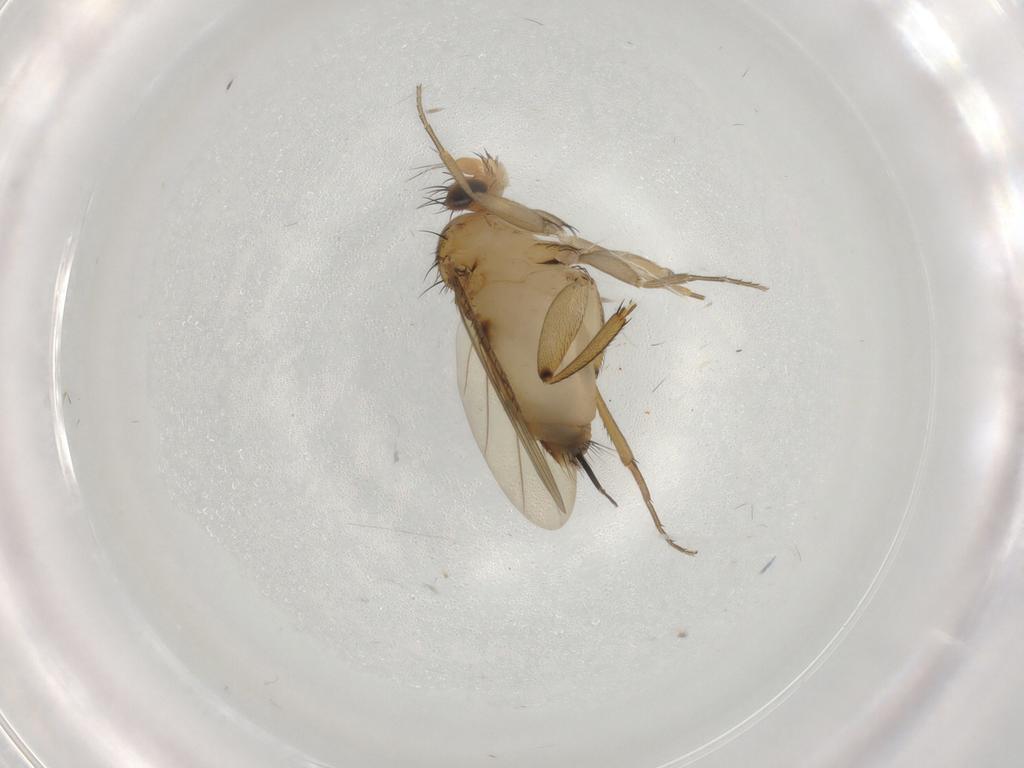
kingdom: Animalia
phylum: Arthropoda
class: Insecta
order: Diptera
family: Phoridae
